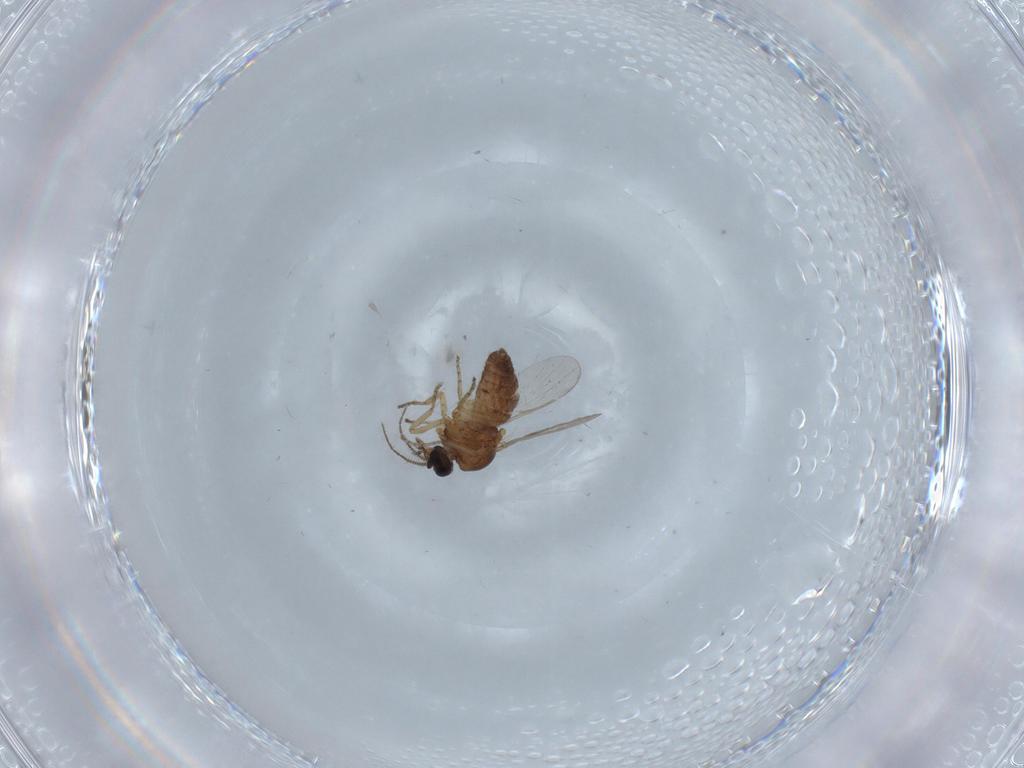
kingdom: Animalia
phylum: Arthropoda
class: Insecta
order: Diptera
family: Ceratopogonidae
